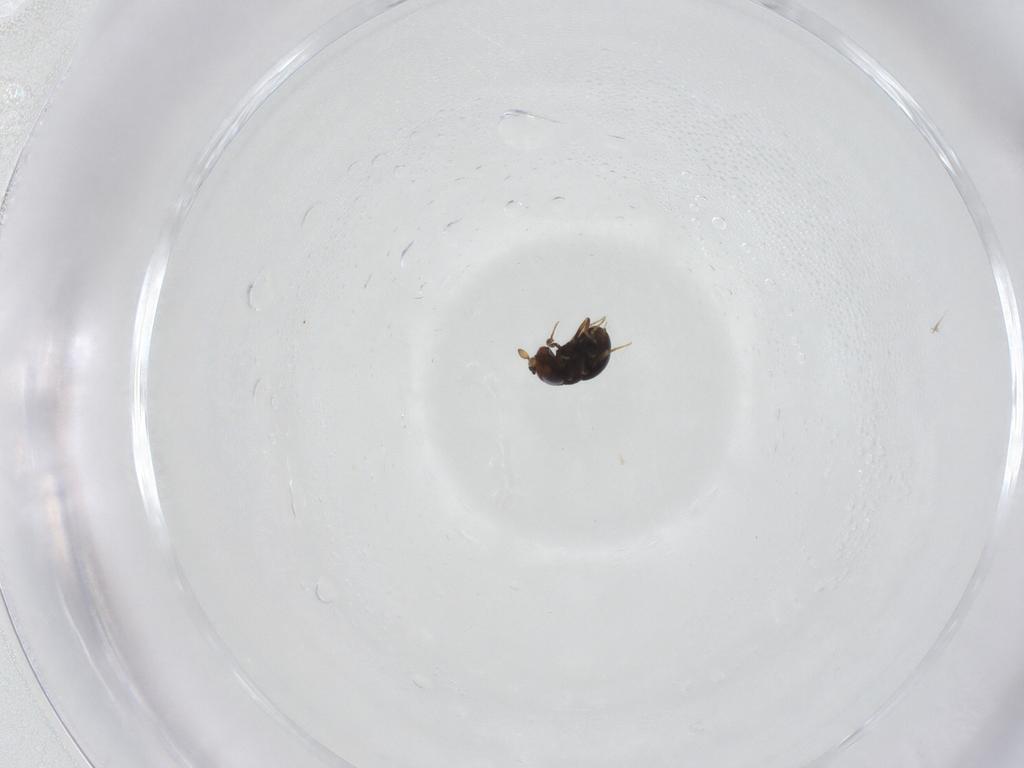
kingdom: Animalia
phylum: Arthropoda
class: Insecta
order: Hymenoptera
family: Scelionidae
